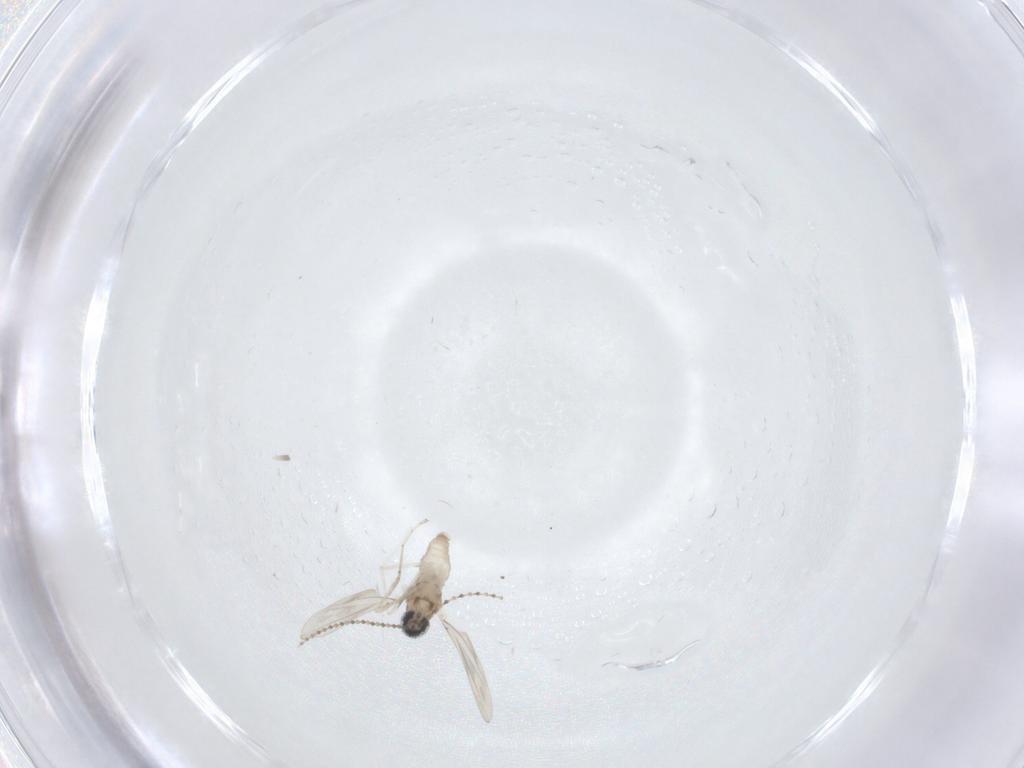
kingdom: Animalia
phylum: Arthropoda
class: Insecta
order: Diptera
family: Cecidomyiidae
